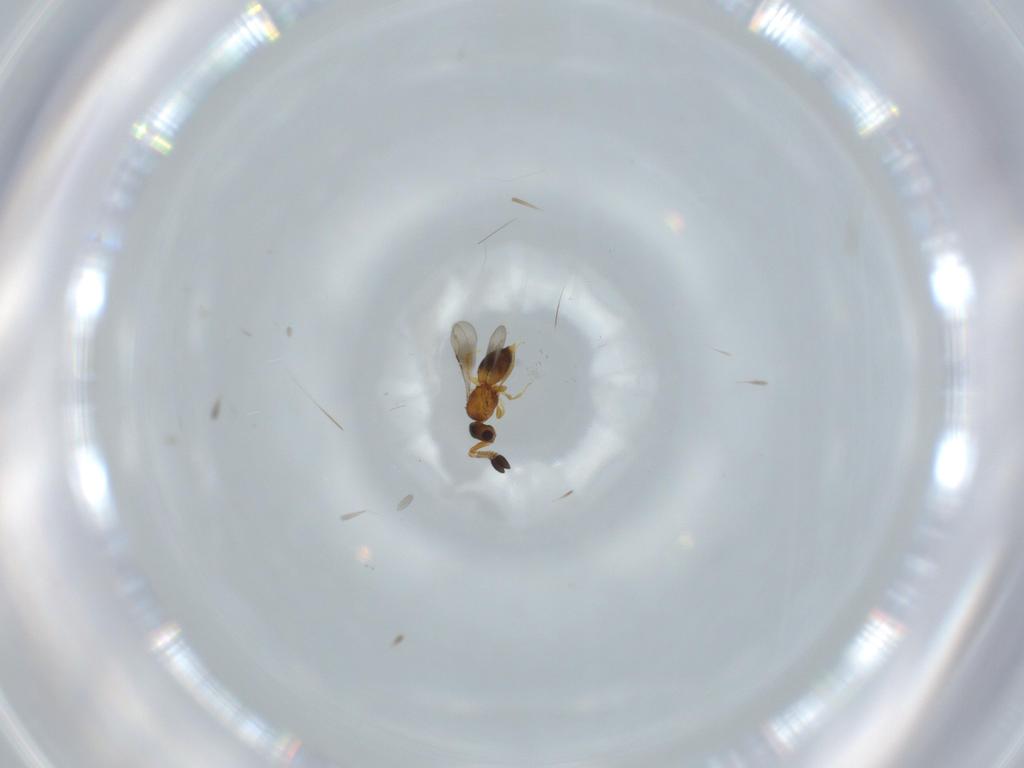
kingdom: Animalia
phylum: Arthropoda
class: Insecta
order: Hymenoptera
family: Ceraphronidae
